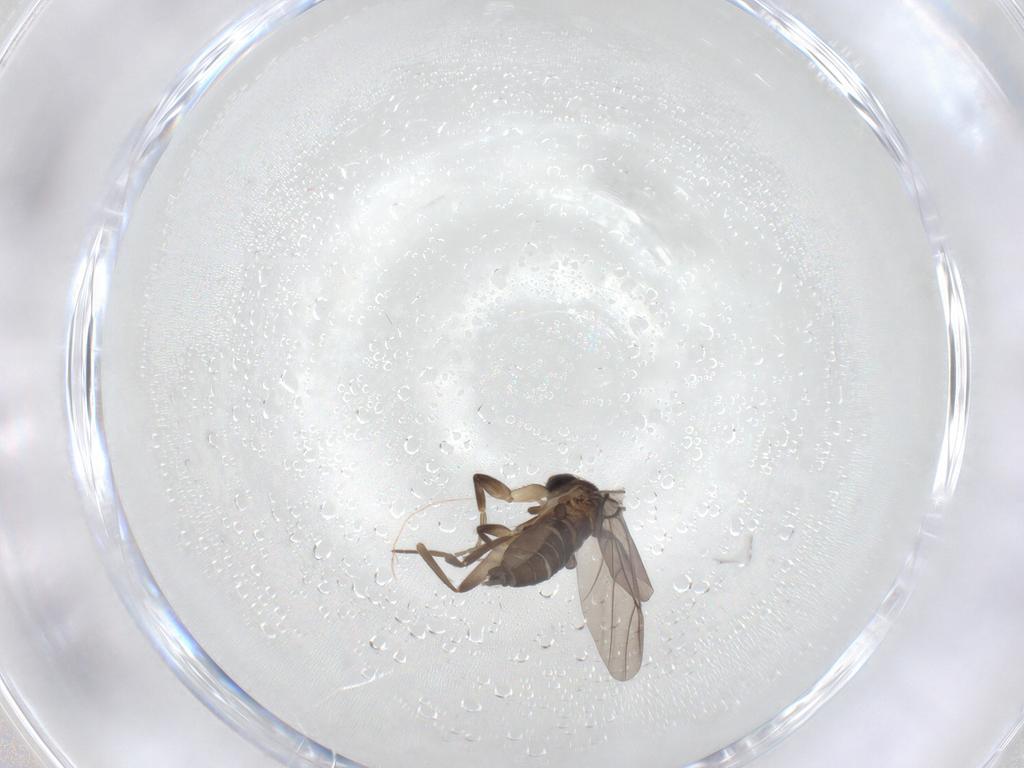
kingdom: Animalia
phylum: Arthropoda
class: Insecta
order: Diptera
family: Phoridae
